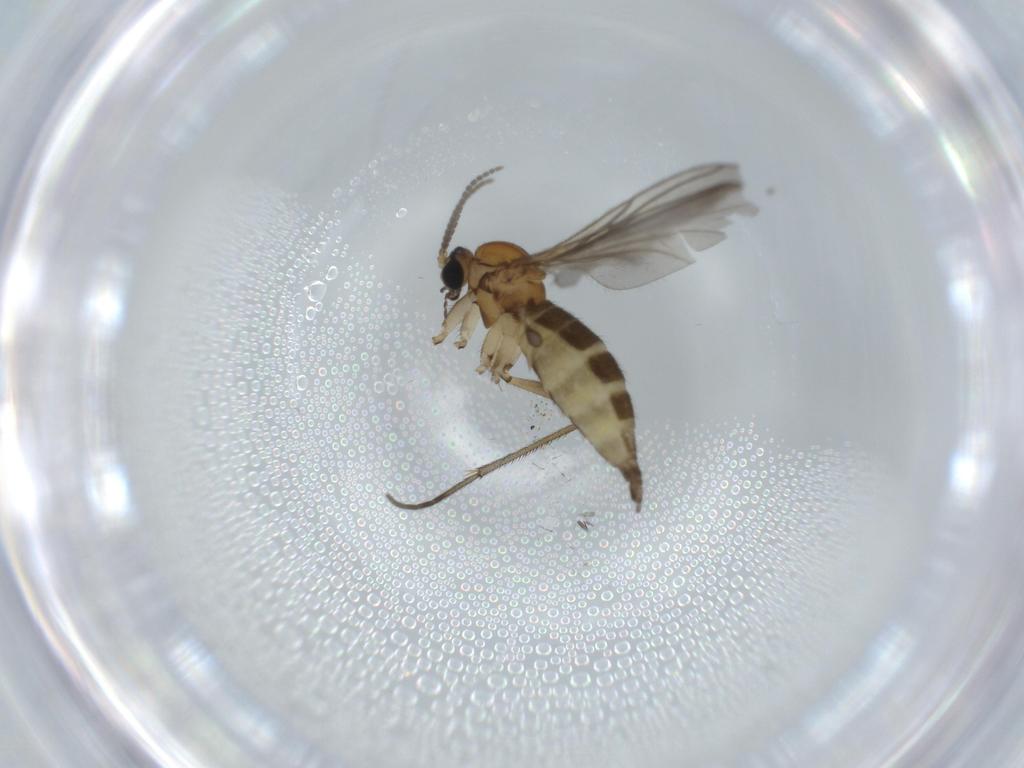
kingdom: Animalia
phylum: Arthropoda
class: Insecta
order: Diptera
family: Sciaridae
